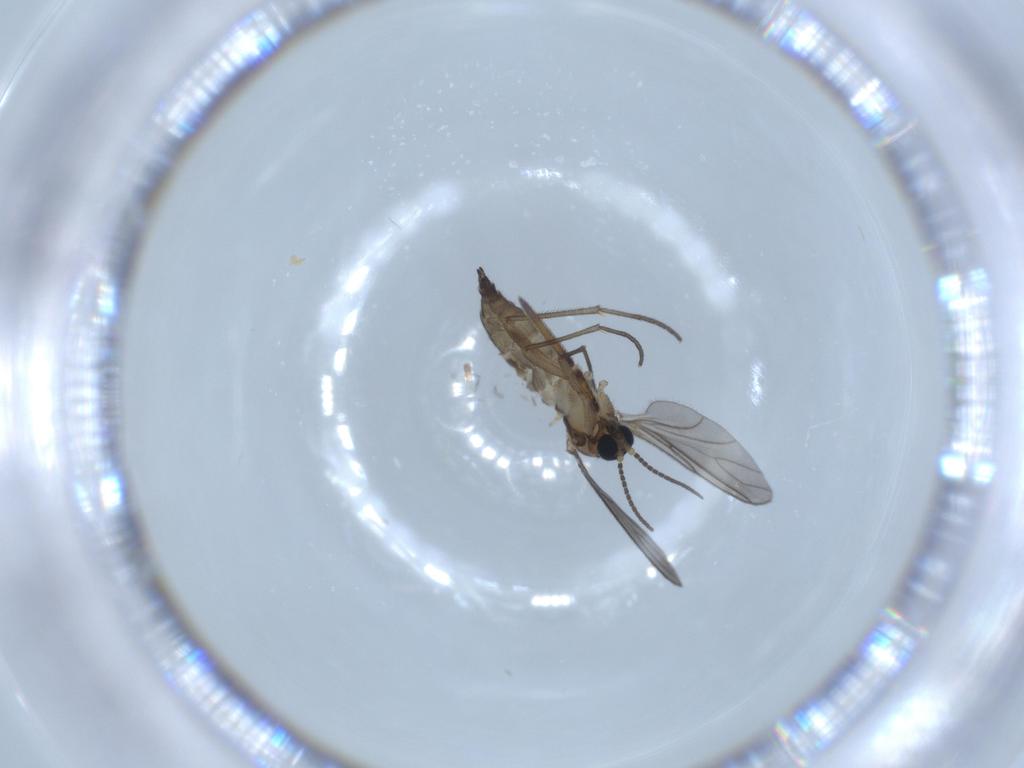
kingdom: Animalia
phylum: Arthropoda
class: Insecta
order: Diptera
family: Sciaridae
